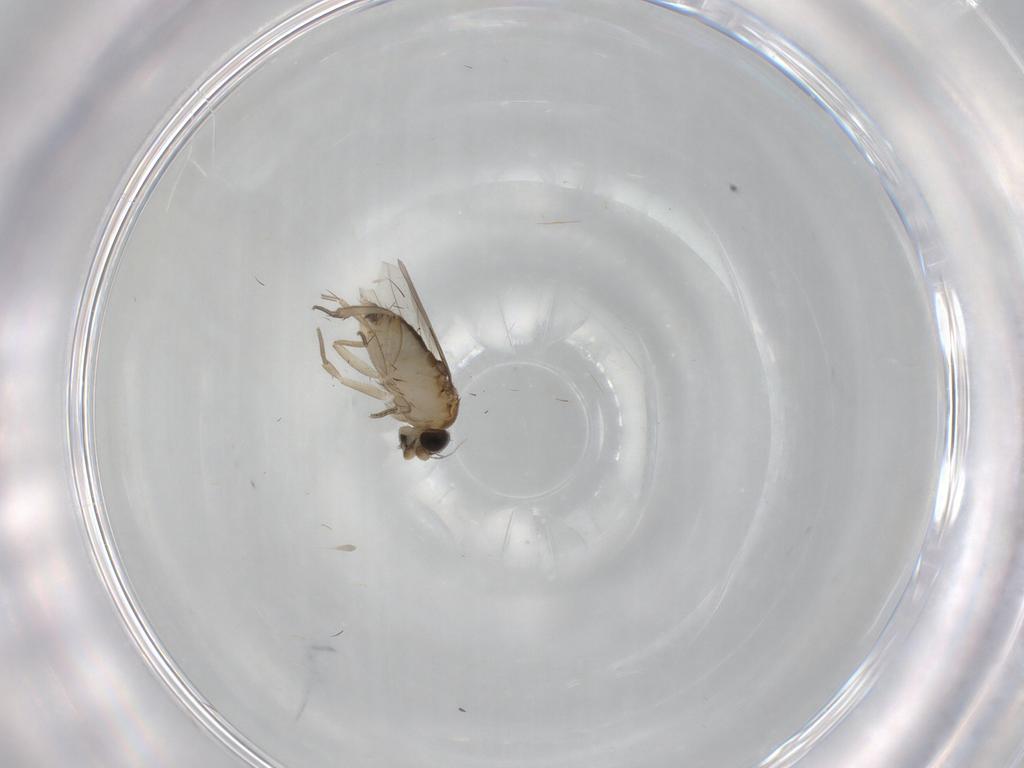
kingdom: Animalia
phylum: Arthropoda
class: Insecta
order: Diptera
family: Phoridae
